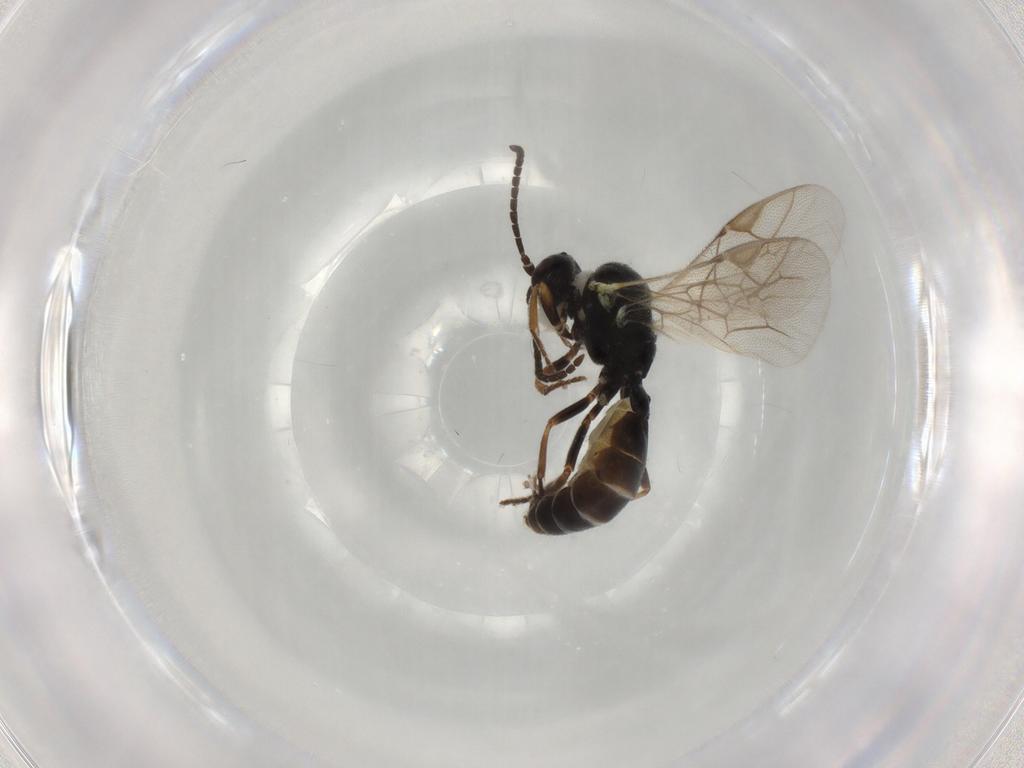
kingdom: Animalia
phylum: Arthropoda
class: Insecta
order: Hymenoptera
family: Ichneumonidae
